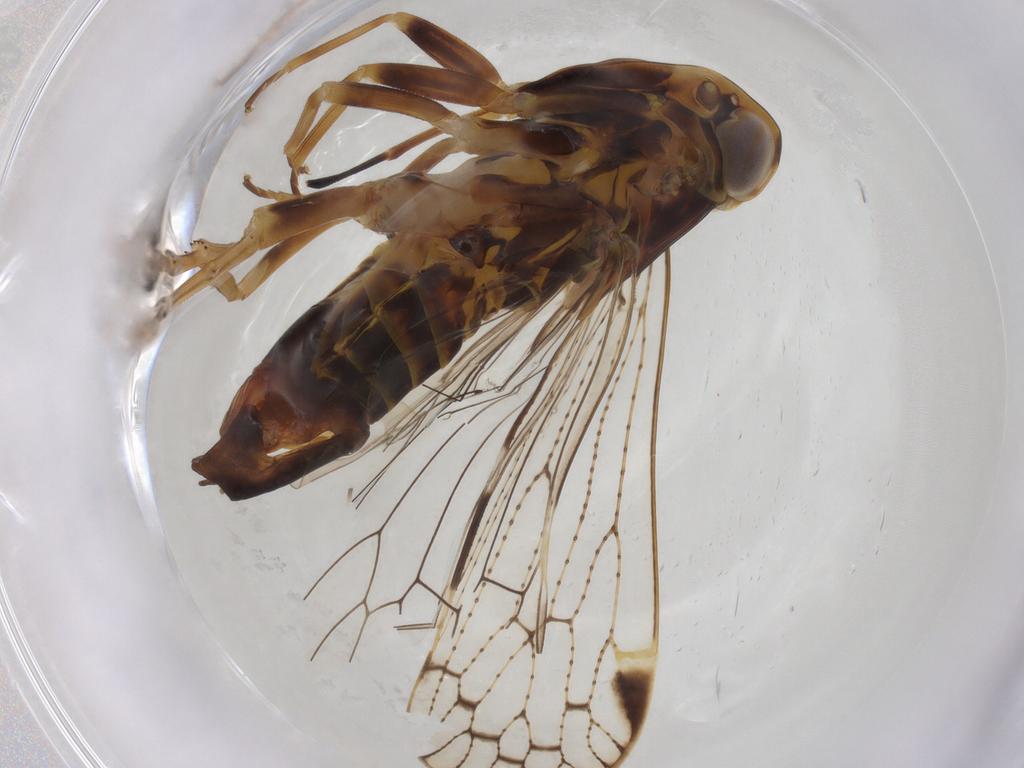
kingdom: Animalia
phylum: Arthropoda
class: Insecta
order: Hemiptera
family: Cixiidae
